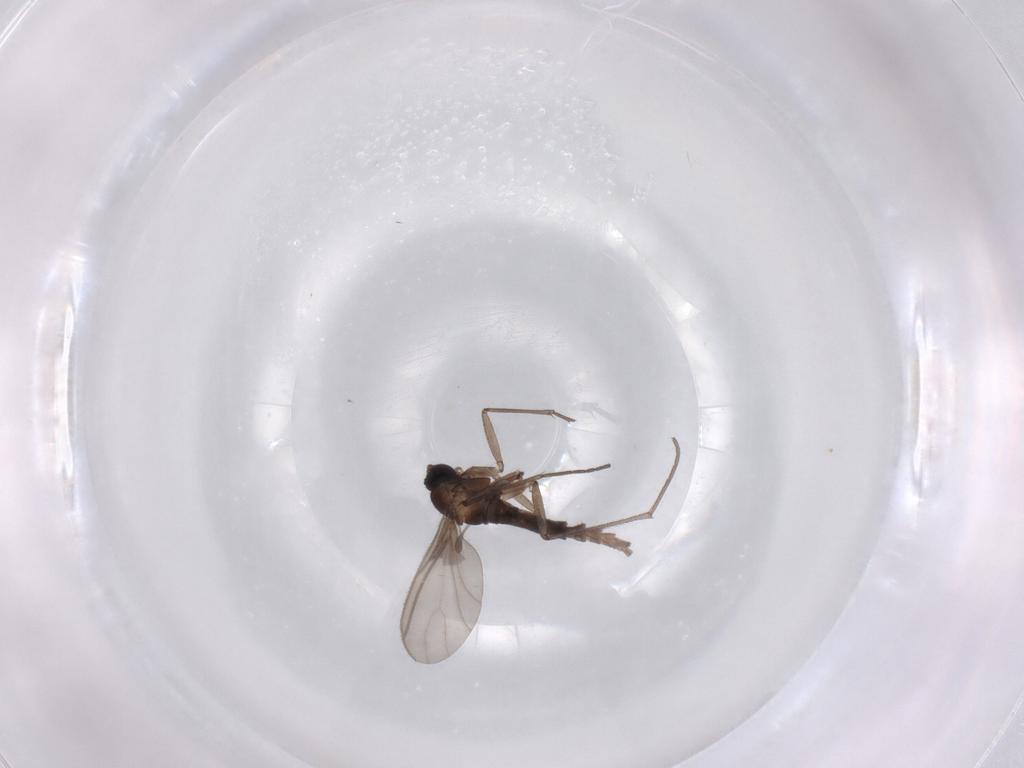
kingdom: Animalia
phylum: Arthropoda
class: Insecta
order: Diptera
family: Sciaridae
